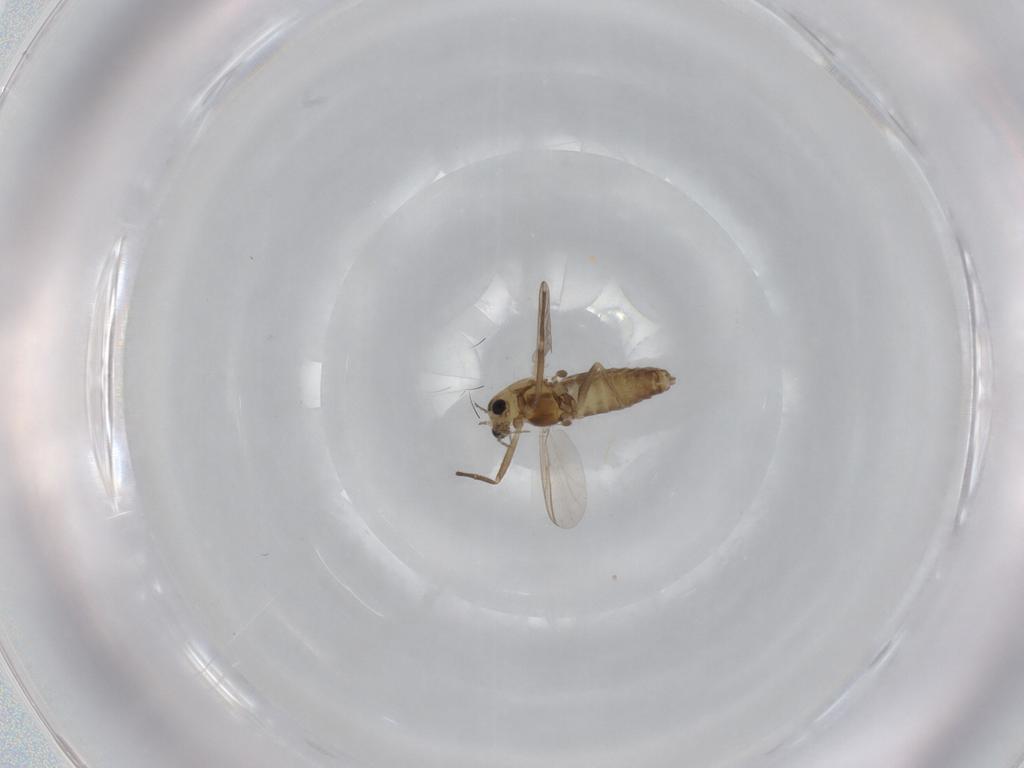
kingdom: Animalia
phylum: Arthropoda
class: Insecta
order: Diptera
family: Chironomidae
